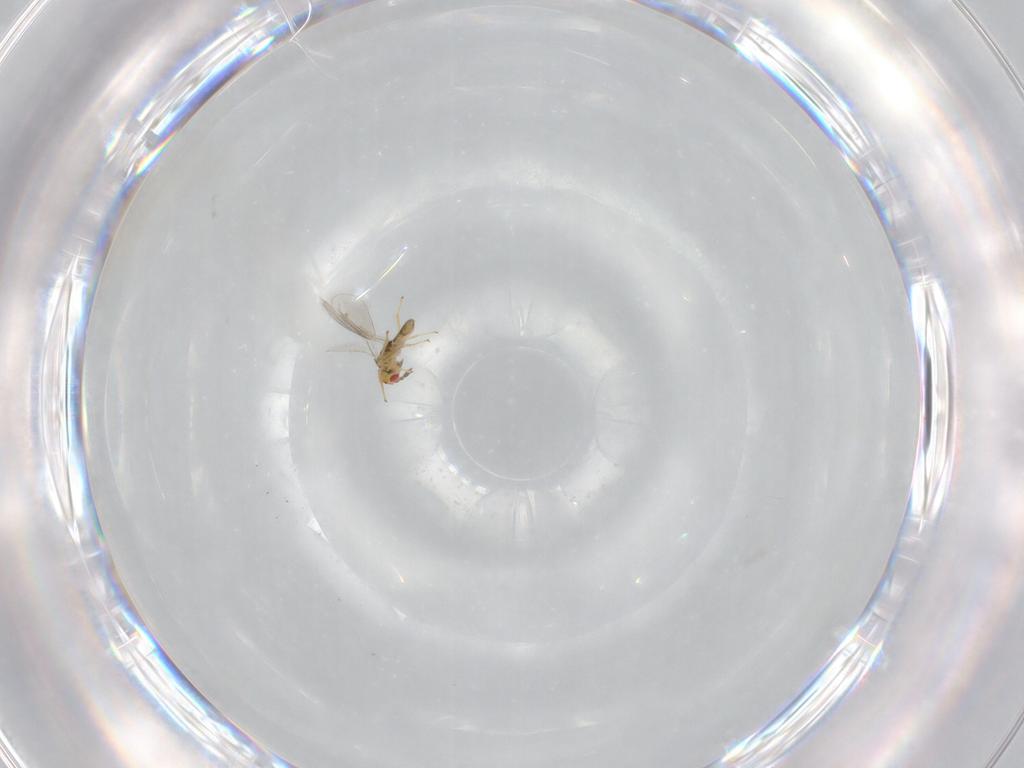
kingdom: Animalia
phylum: Arthropoda
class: Insecta
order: Hymenoptera
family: Eulophidae
